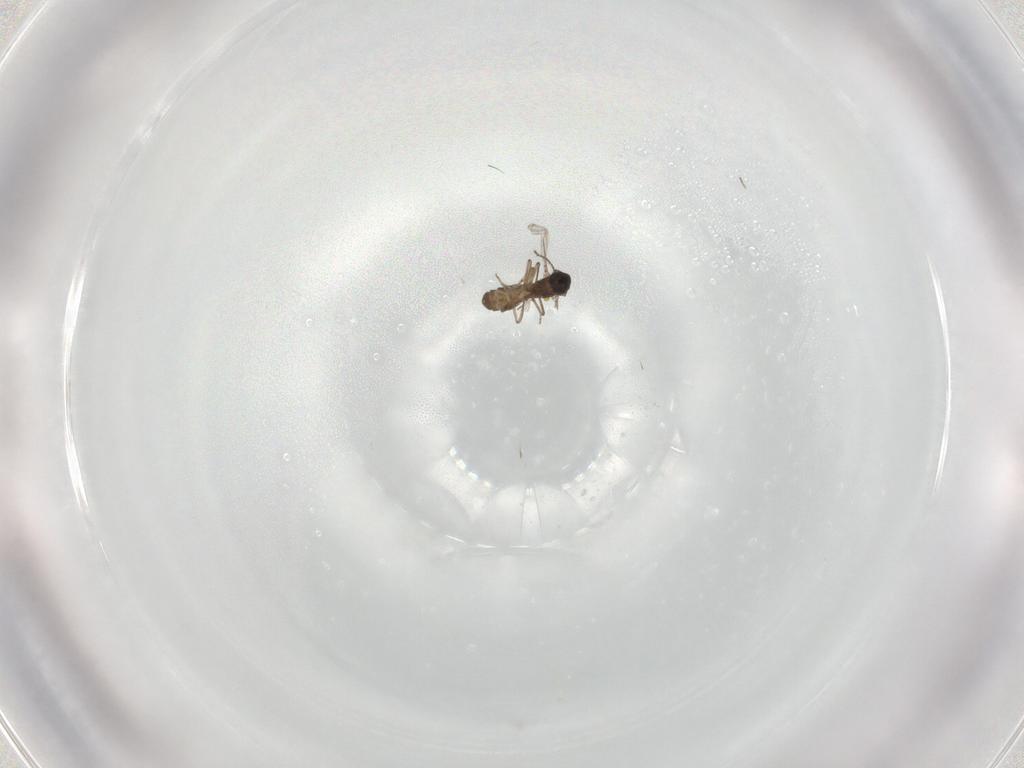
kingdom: Animalia
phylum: Arthropoda
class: Insecta
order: Diptera
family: Ceratopogonidae
